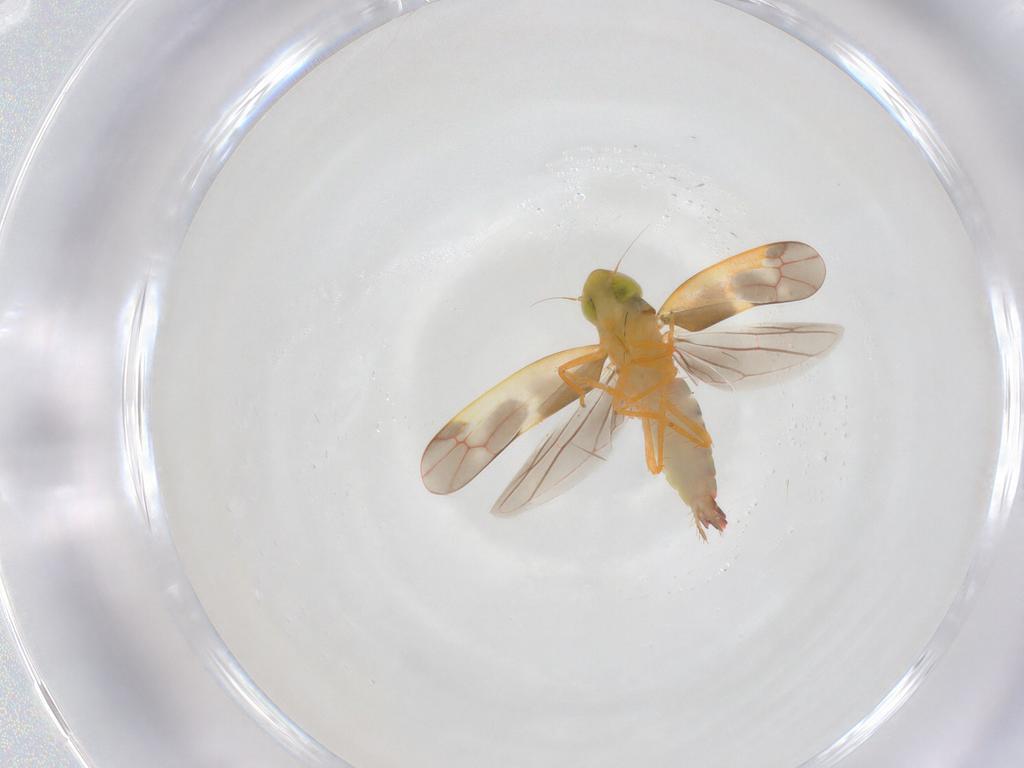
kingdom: Animalia
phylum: Arthropoda
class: Insecta
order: Hemiptera
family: Cicadellidae
